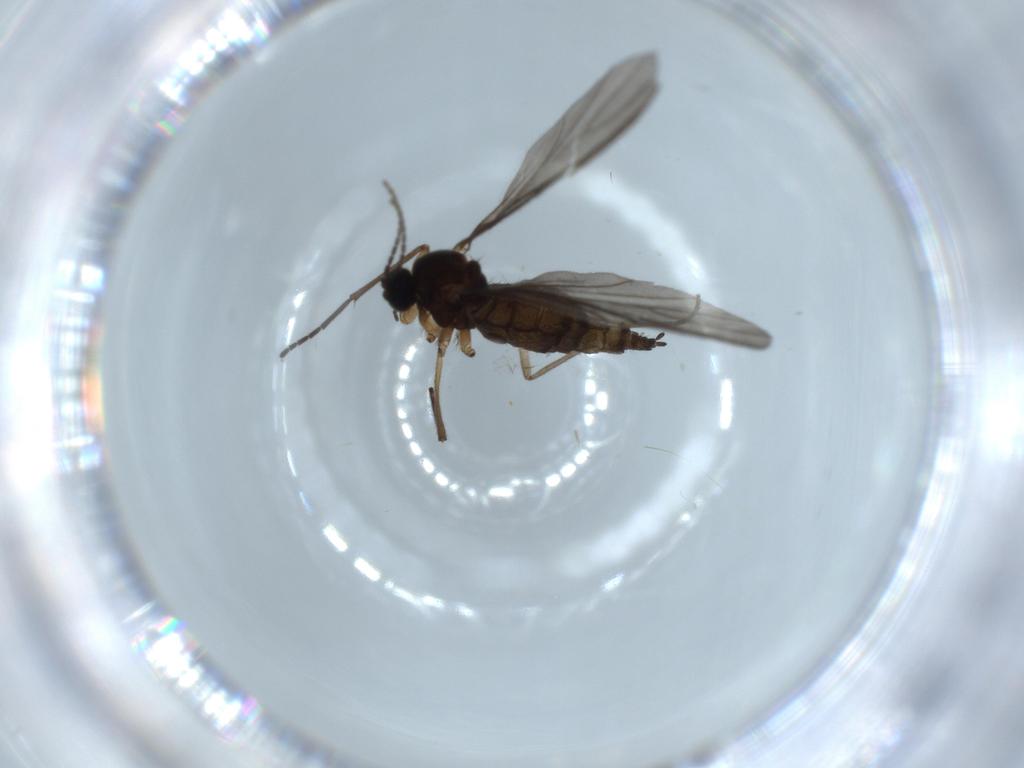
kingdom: Animalia
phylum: Arthropoda
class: Insecta
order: Diptera
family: Sciaridae
